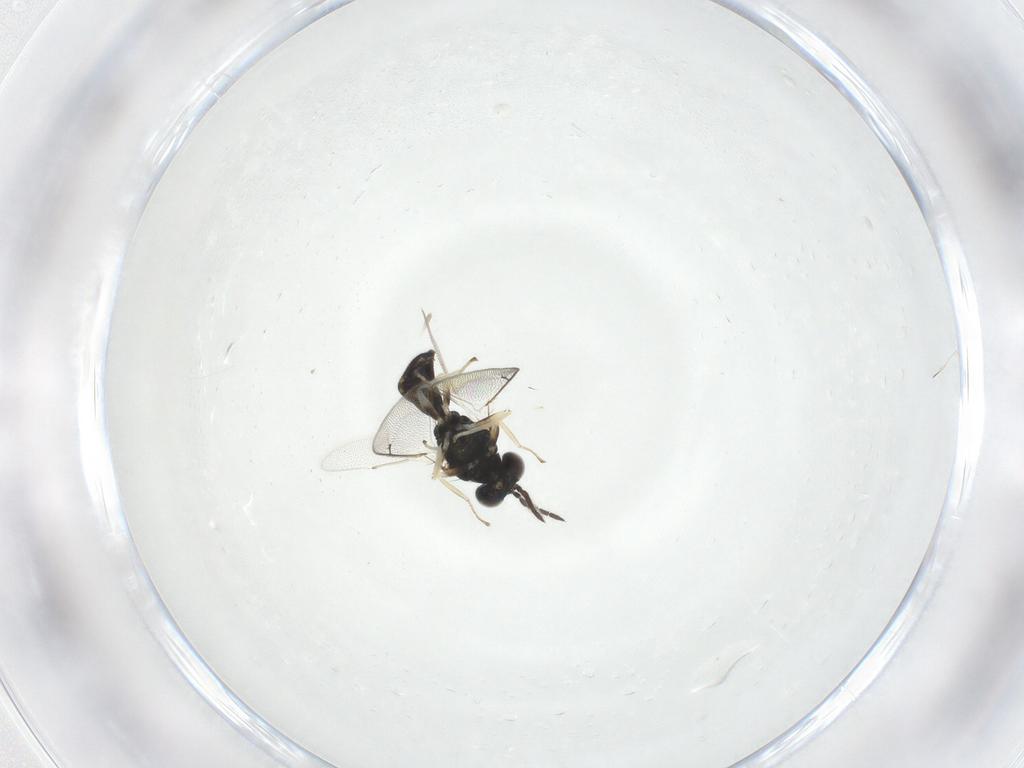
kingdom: Animalia
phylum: Arthropoda
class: Insecta
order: Hymenoptera
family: Eulophidae
